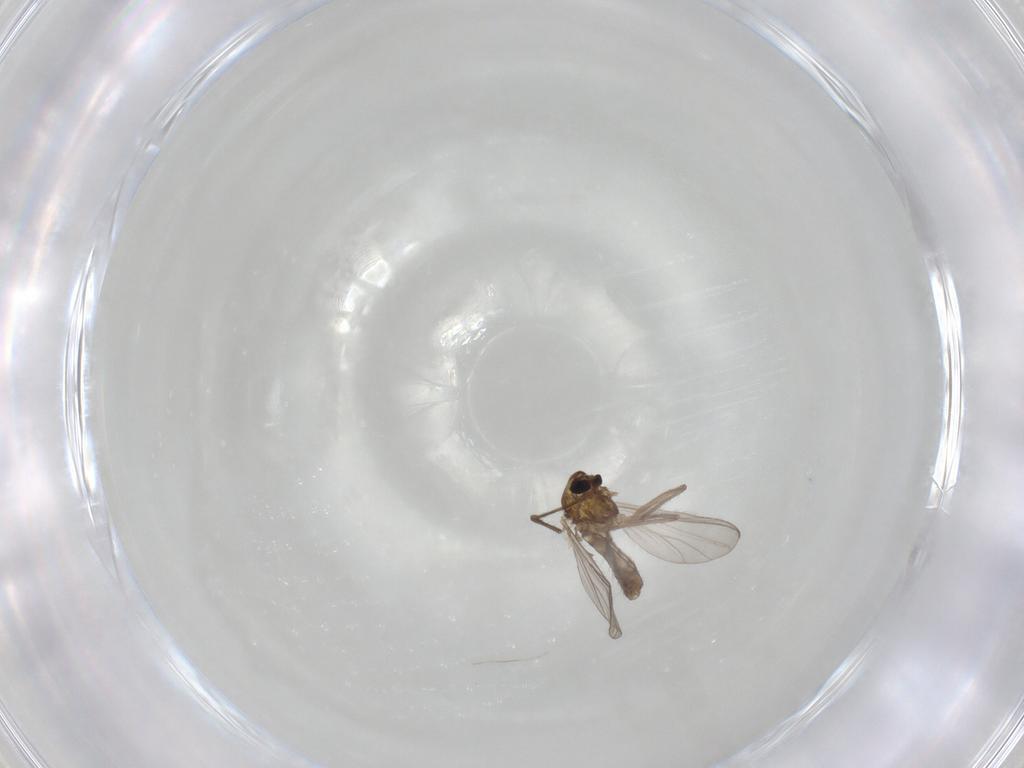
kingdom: Animalia
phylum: Arthropoda
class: Insecta
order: Diptera
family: Chironomidae
